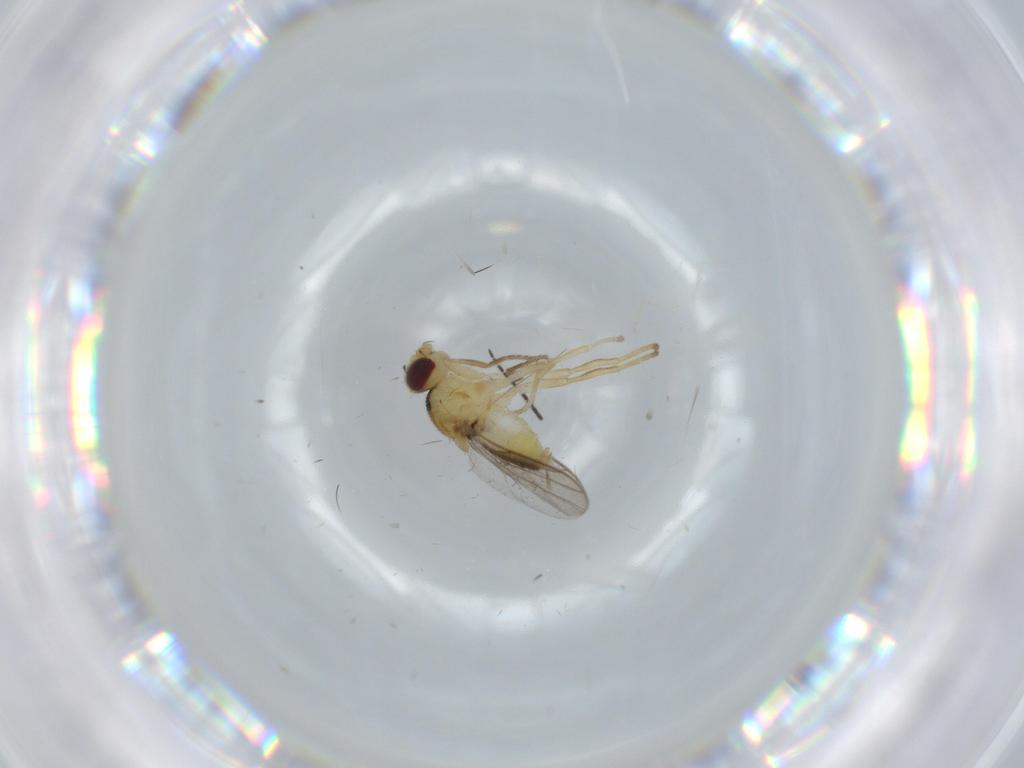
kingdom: Animalia
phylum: Arthropoda
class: Insecta
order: Diptera
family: Chloropidae
